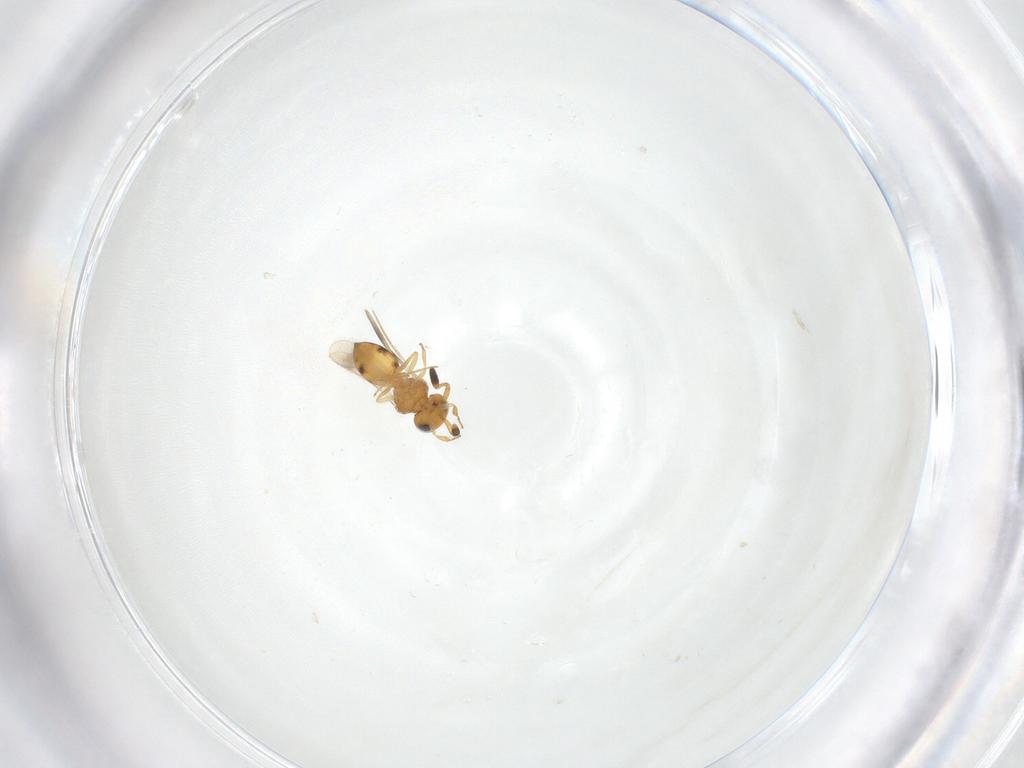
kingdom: Animalia
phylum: Arthropoda
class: Insecta
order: Hymenoptera
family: Scelionidae
